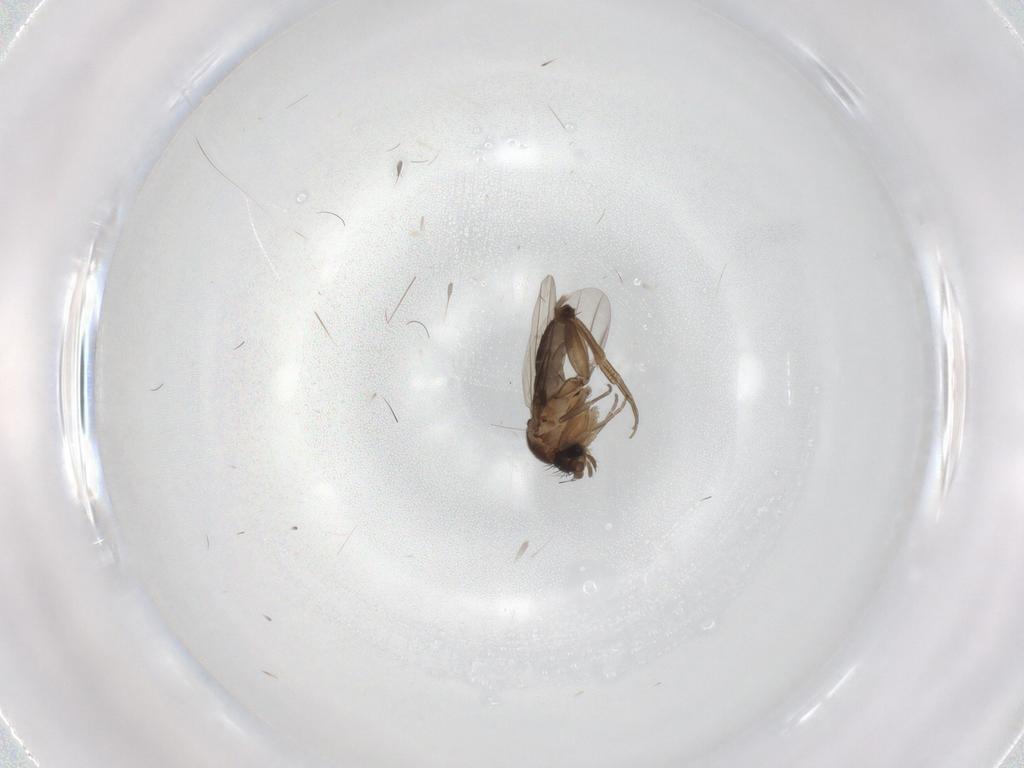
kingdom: Animalia
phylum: Arthropoda
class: Insecta
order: Diptera
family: Phoridae
